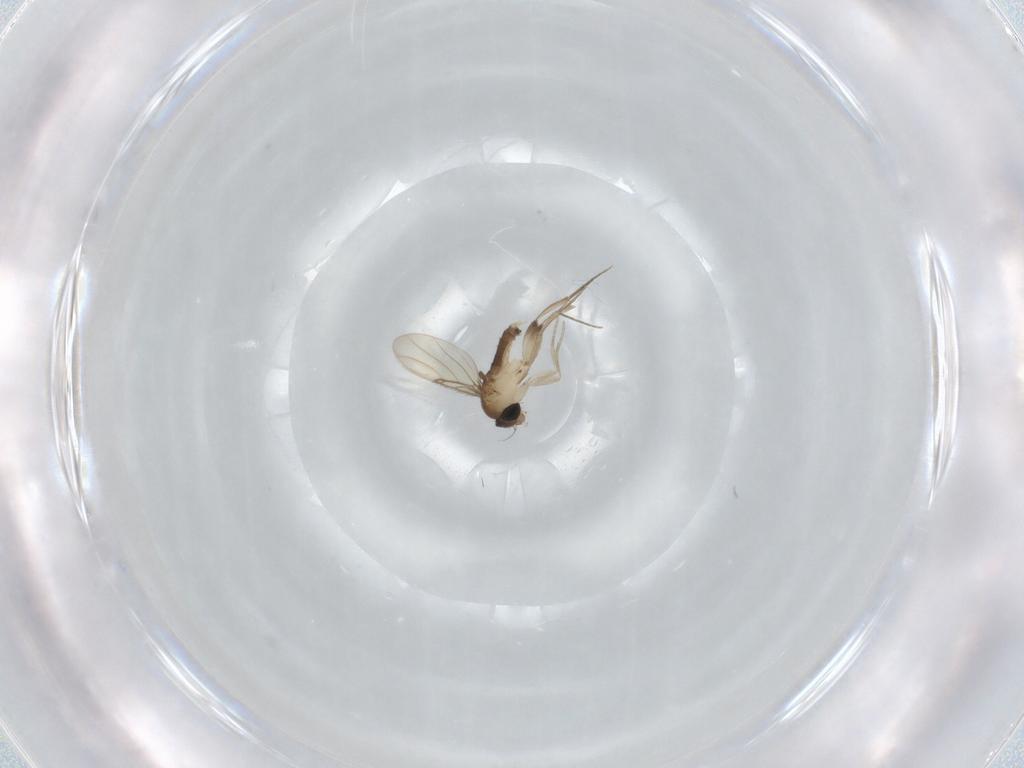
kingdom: Animalia
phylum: Arthropoda
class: Insecta
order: Diptera
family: Phoridae
